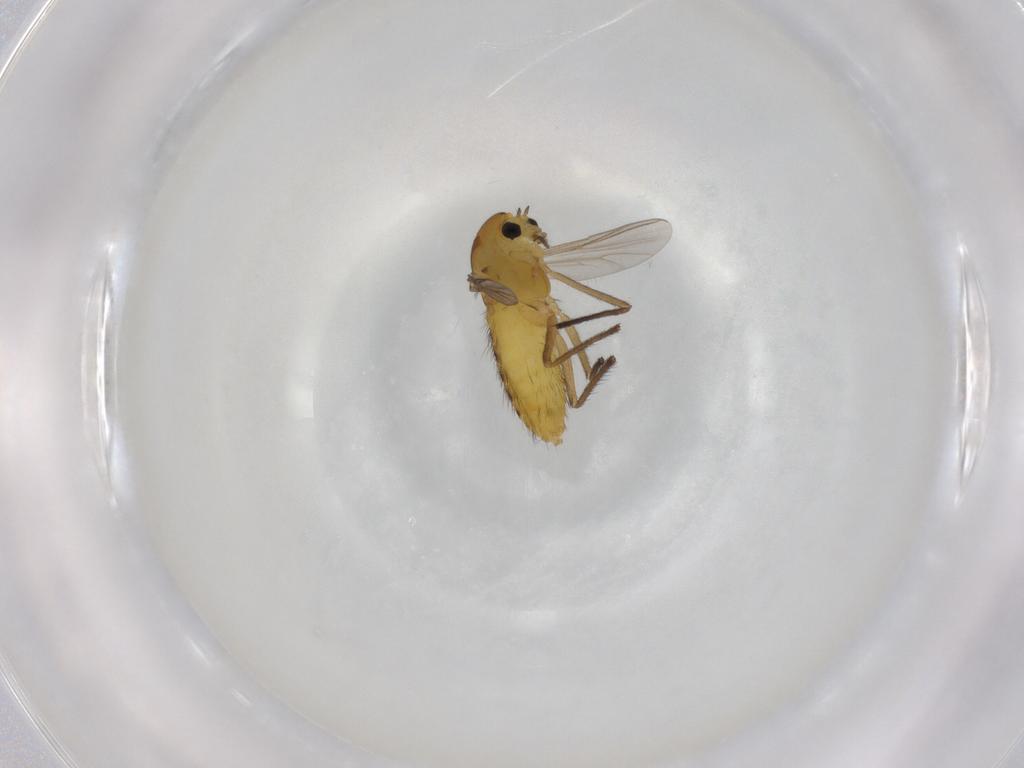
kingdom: Animalia
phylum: Arthropoda
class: Insecta
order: Diptera
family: Chironomidae
